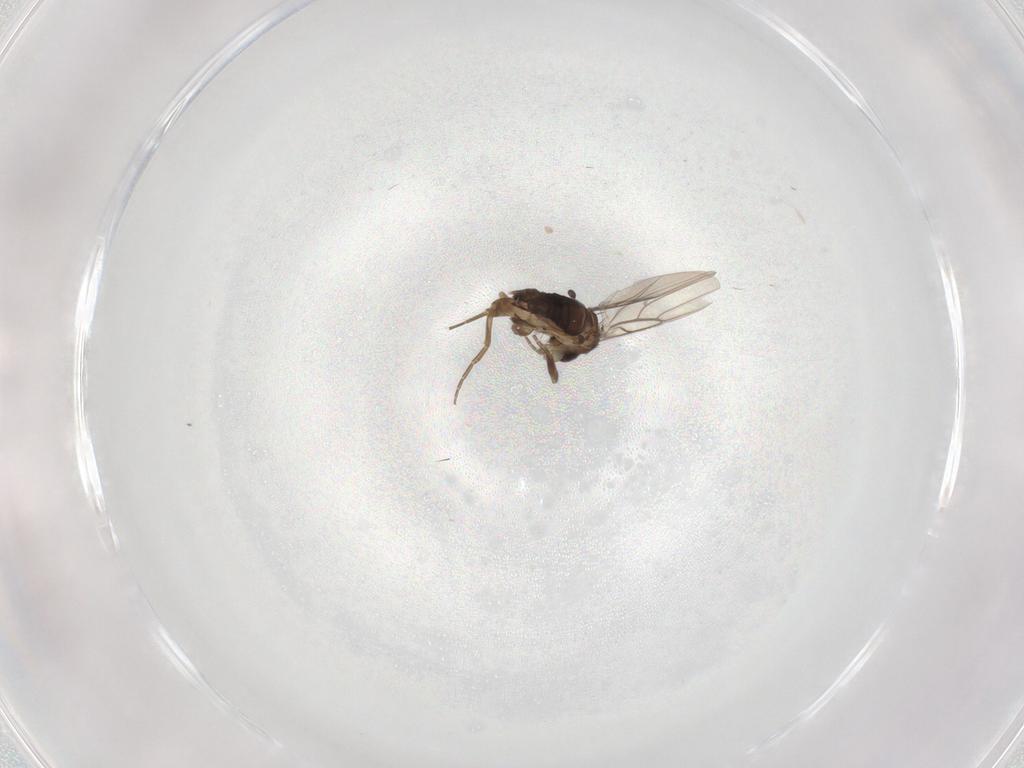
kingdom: Animalia
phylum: Arthropoda
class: Insecta
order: Diptera
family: Phoridae
